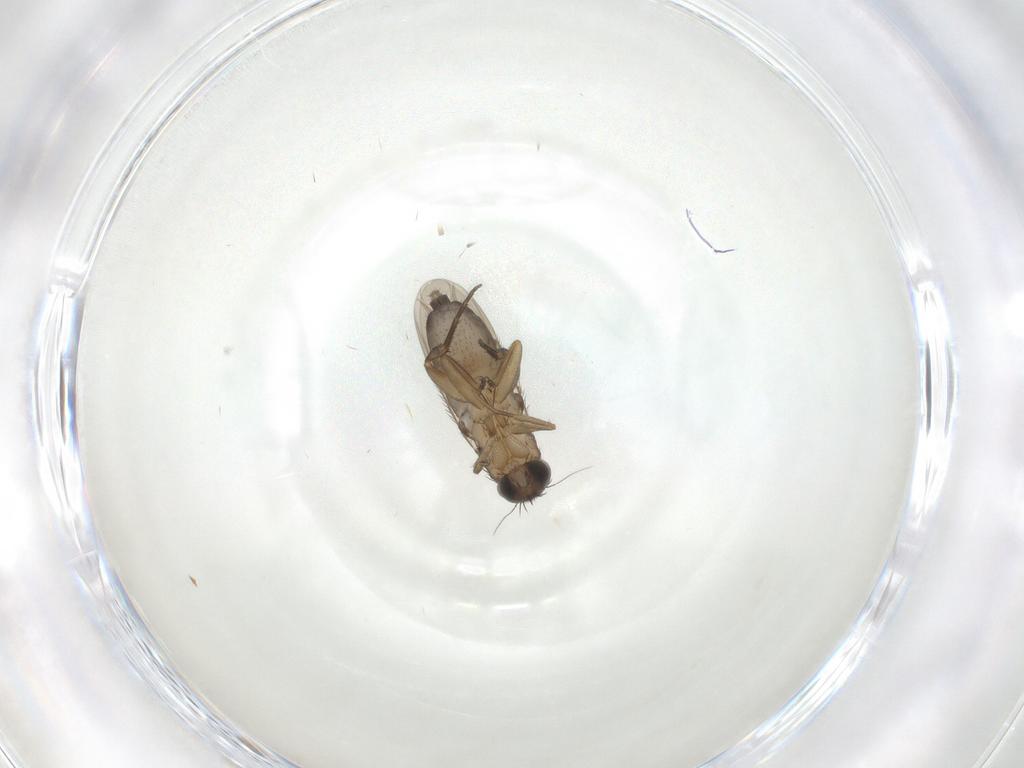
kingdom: Animalia
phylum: Arthropoda
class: Insecta
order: Diptera
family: Phoridae
